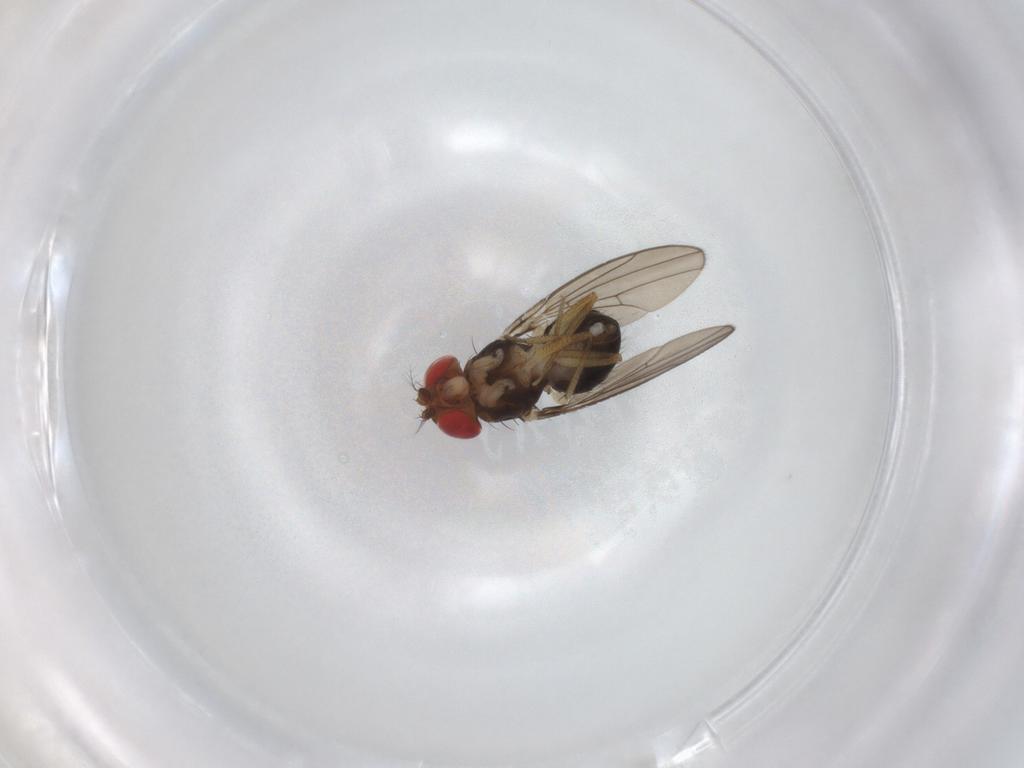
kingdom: Animalia
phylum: Arthropoda
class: Insecta
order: Diptera
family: Drosophilidae
